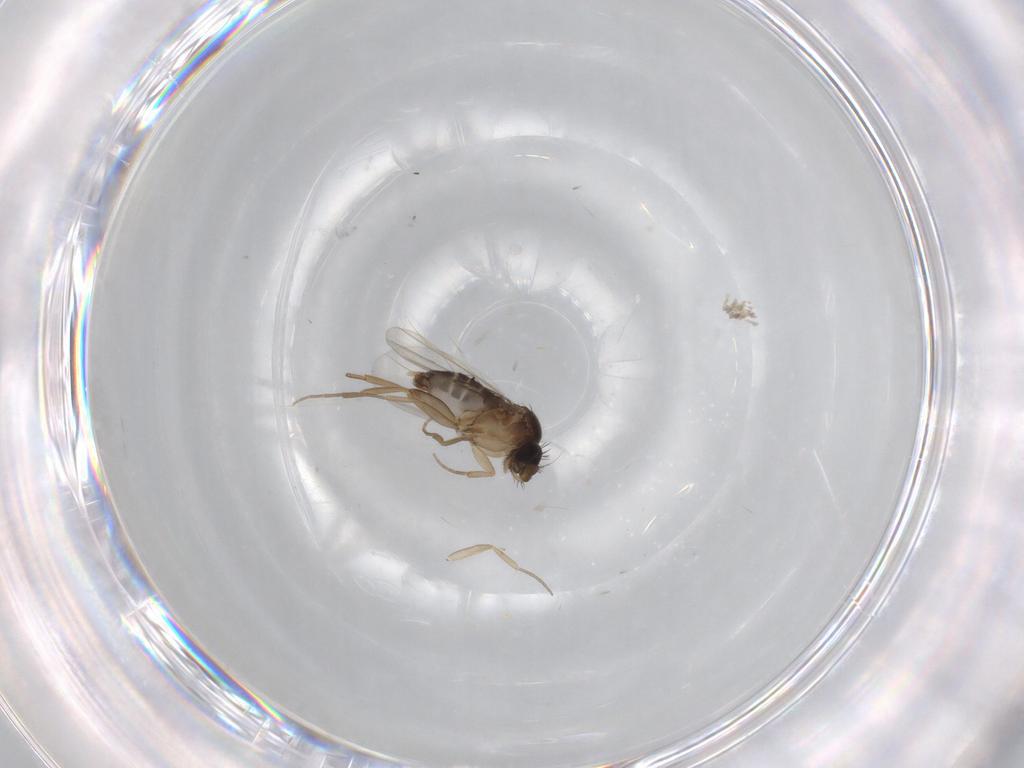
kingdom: Animalia
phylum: Arthropoda
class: Insecta
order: Diptera
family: Phoridae
